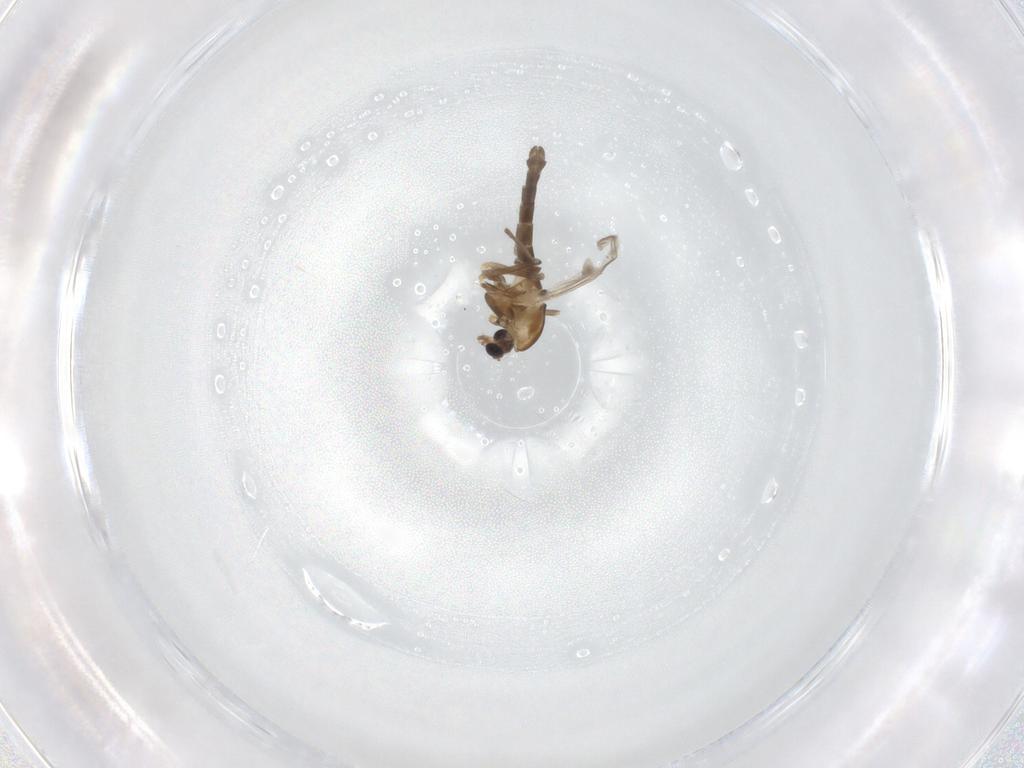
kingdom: Animalia
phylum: Arthropoda
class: Insecta
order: Diptera
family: Chironomidae
